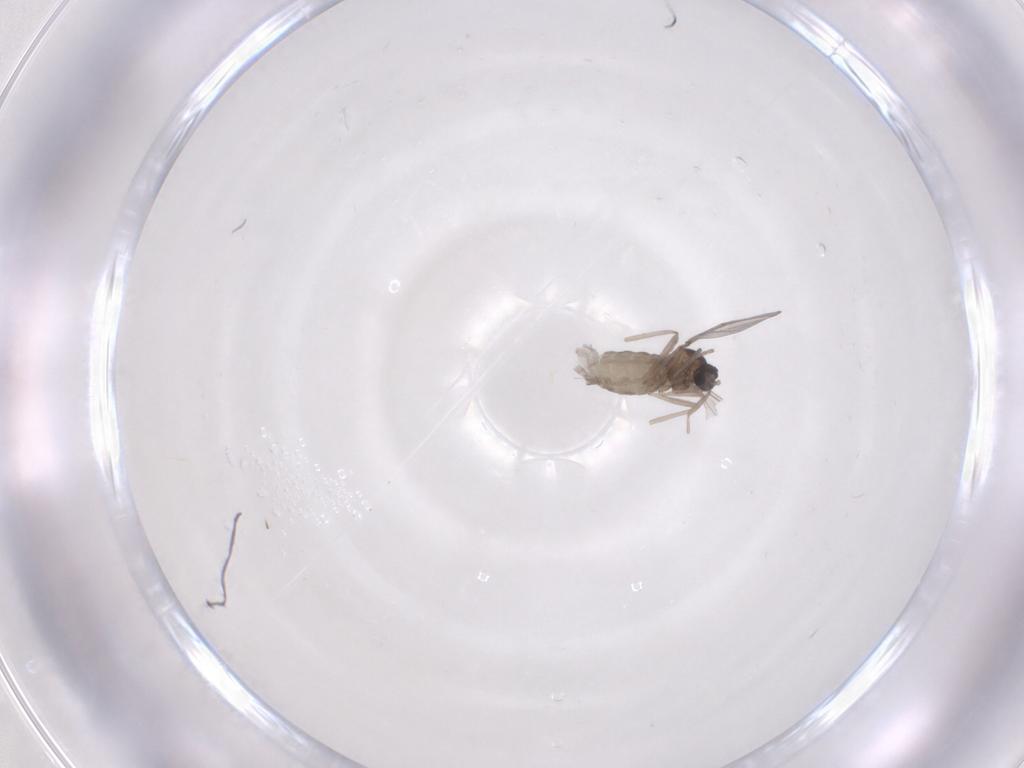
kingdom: Animalia
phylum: Arthropoda
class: Insecta
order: Diptera
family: Cecidomyiidae
